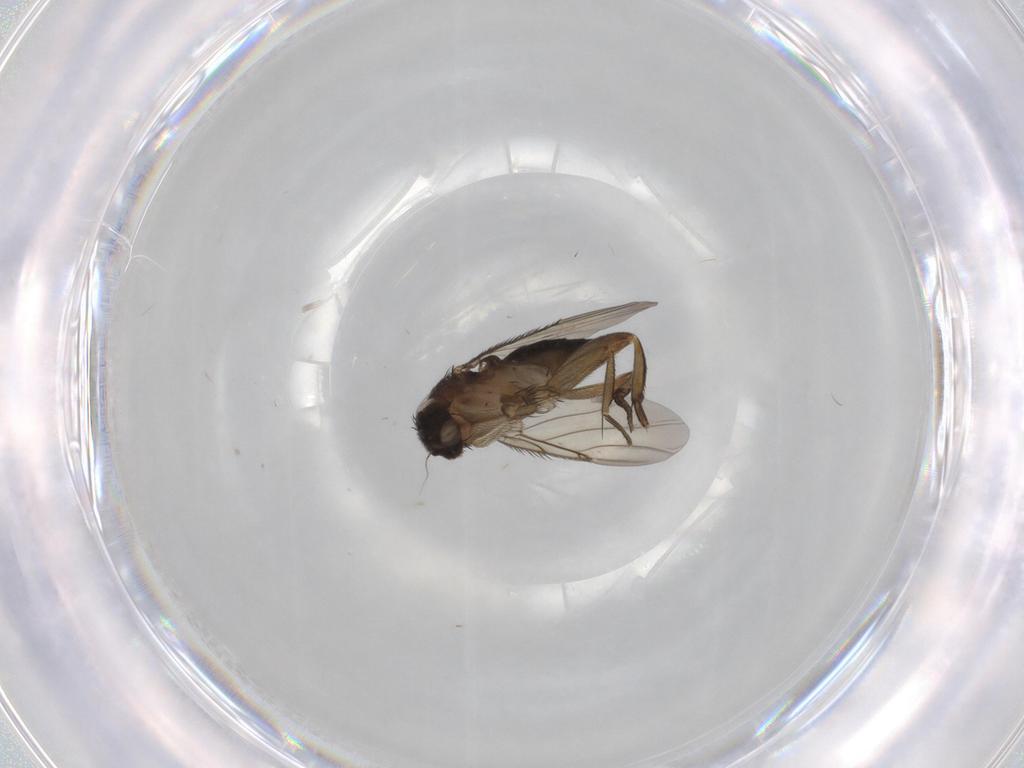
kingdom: Animalia
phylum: Arthropoda
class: Insecta
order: Diptera
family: Phoridae
